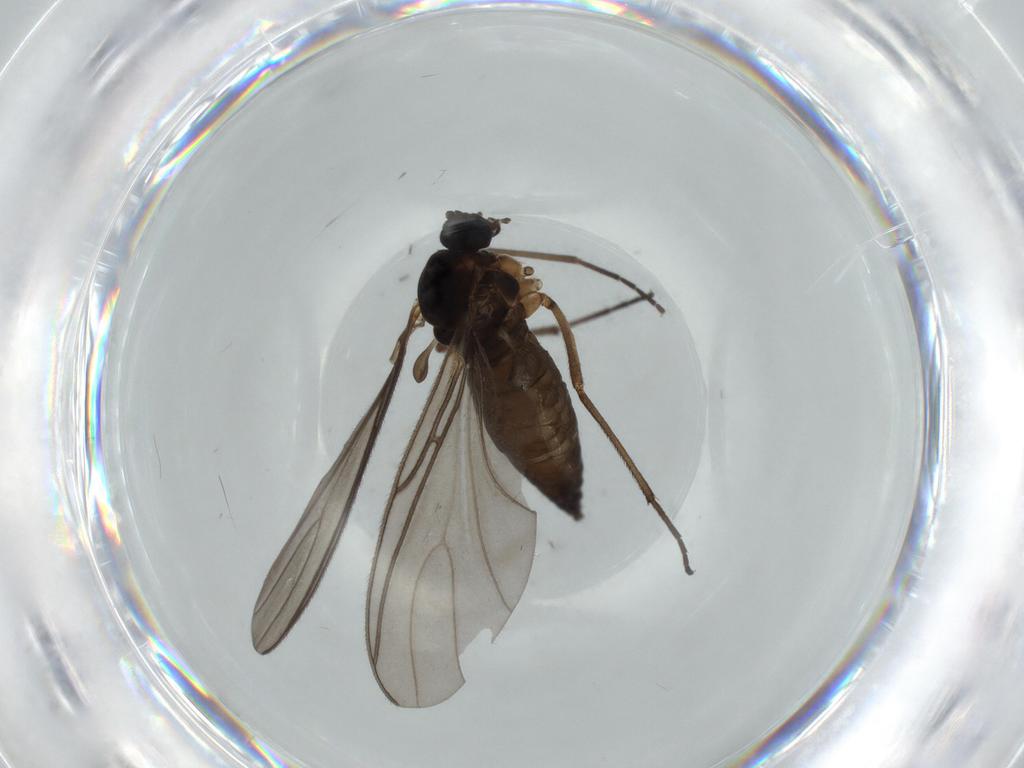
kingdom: Animalia
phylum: Arthropoda
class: Insecta
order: Diptera
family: Sciaridae
